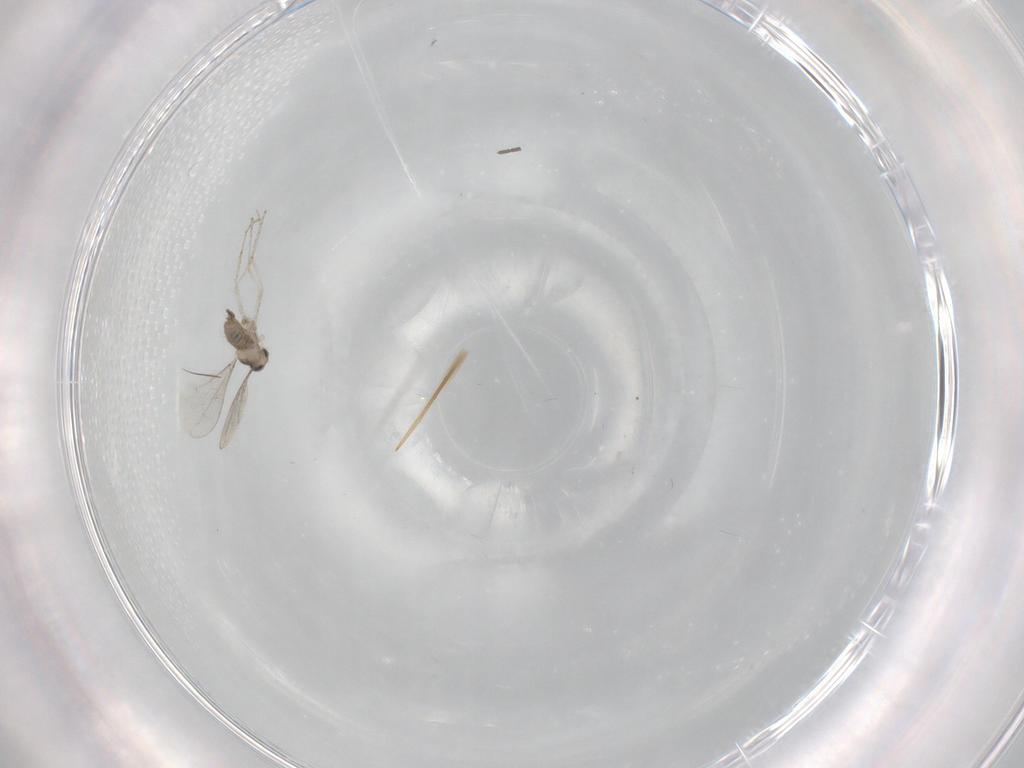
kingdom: Animalia
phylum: Arthropoda
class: Insecta
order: Diptera
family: Cecidomyiidae
